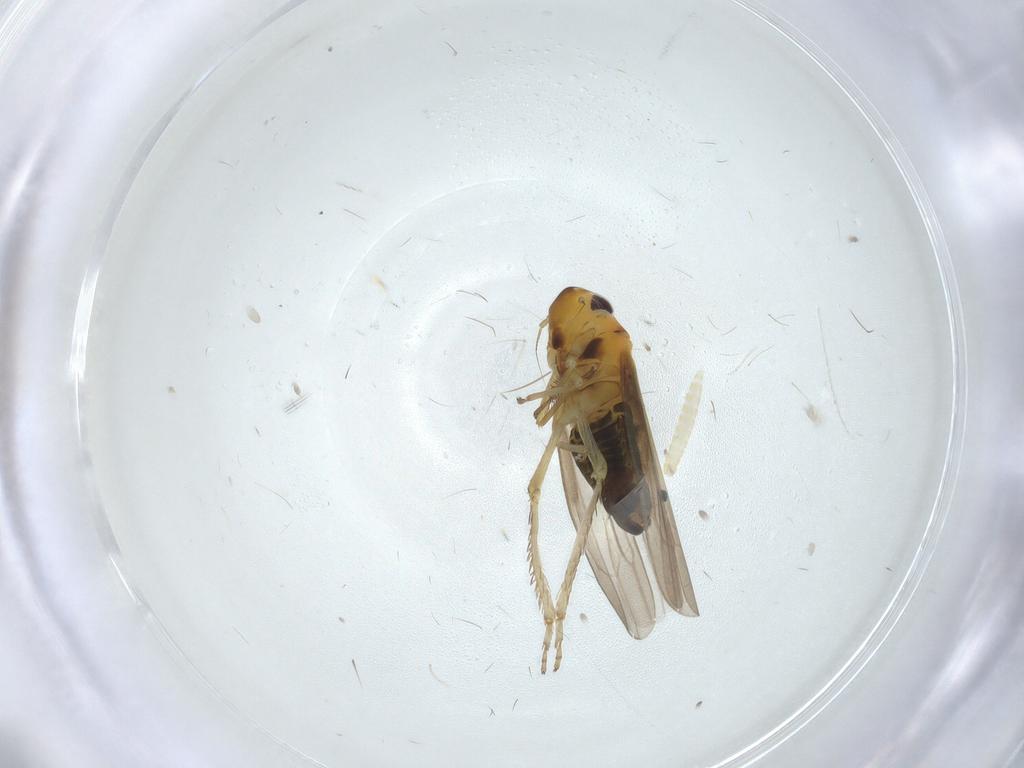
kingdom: Animalia
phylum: Arthropoda
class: Insecta
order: Hemiptera
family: Cicadellidae
